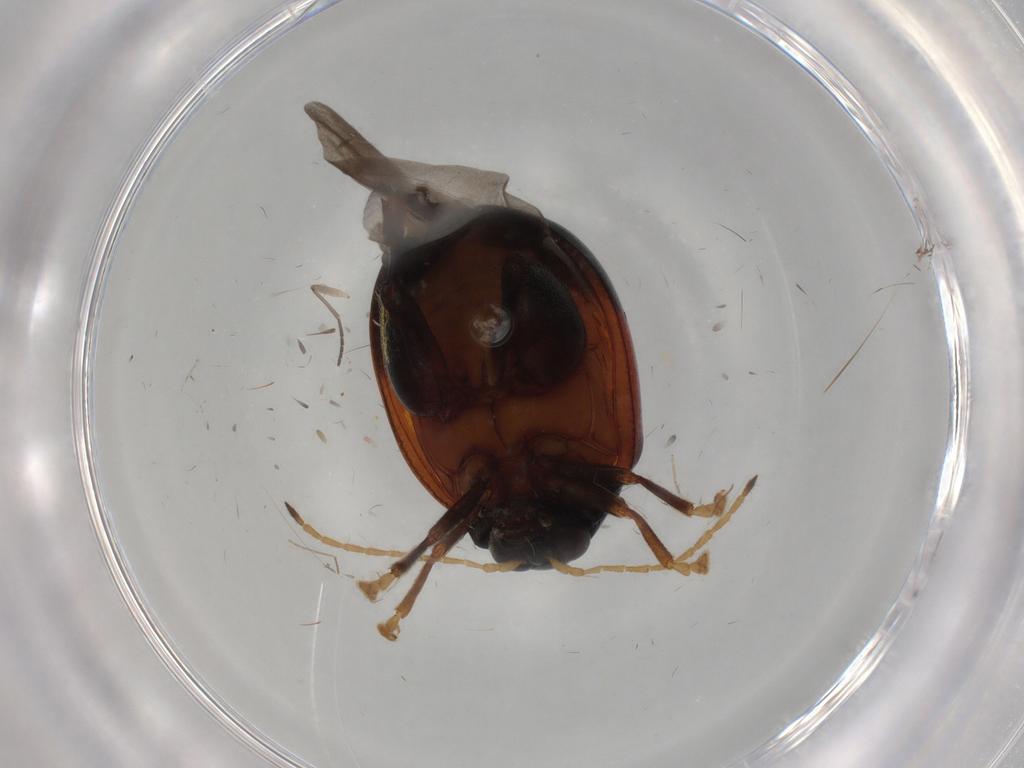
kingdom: Animalia
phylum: Arthropoda
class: Insecta
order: Coleoptera
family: Chrysomelidae
